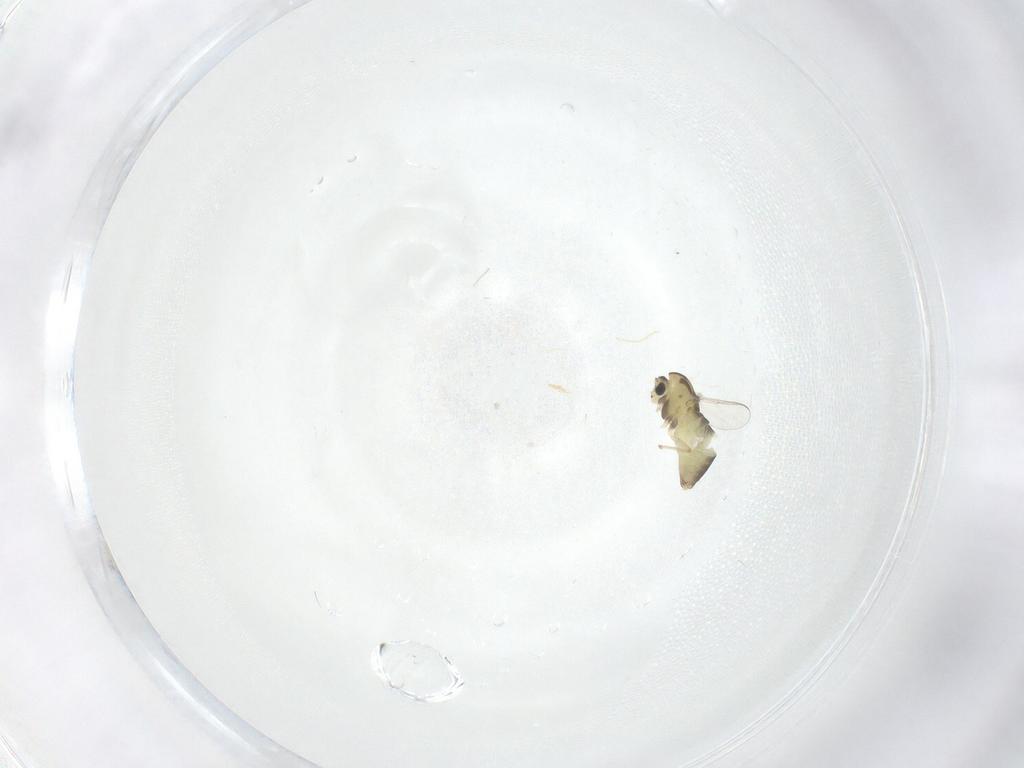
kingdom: Animalia
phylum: Arthropoda
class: Insecta
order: Diptera
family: Chironomidae
